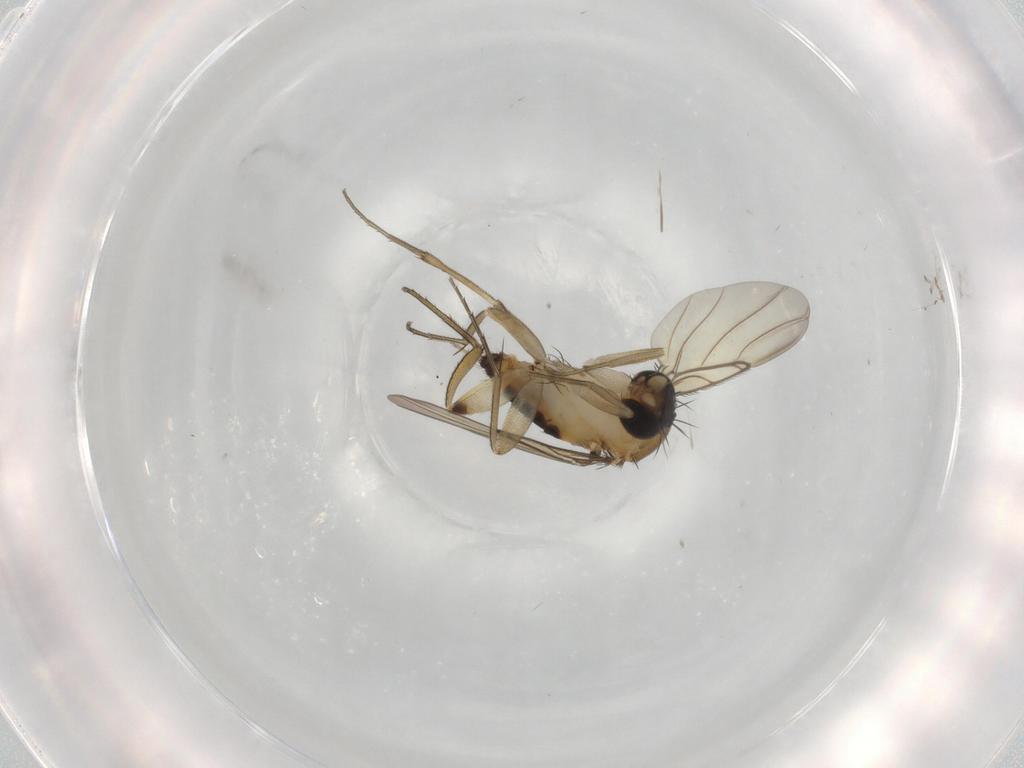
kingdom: Animalia
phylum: Arthropoda
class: Insecta
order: Diptera
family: Phoridae
